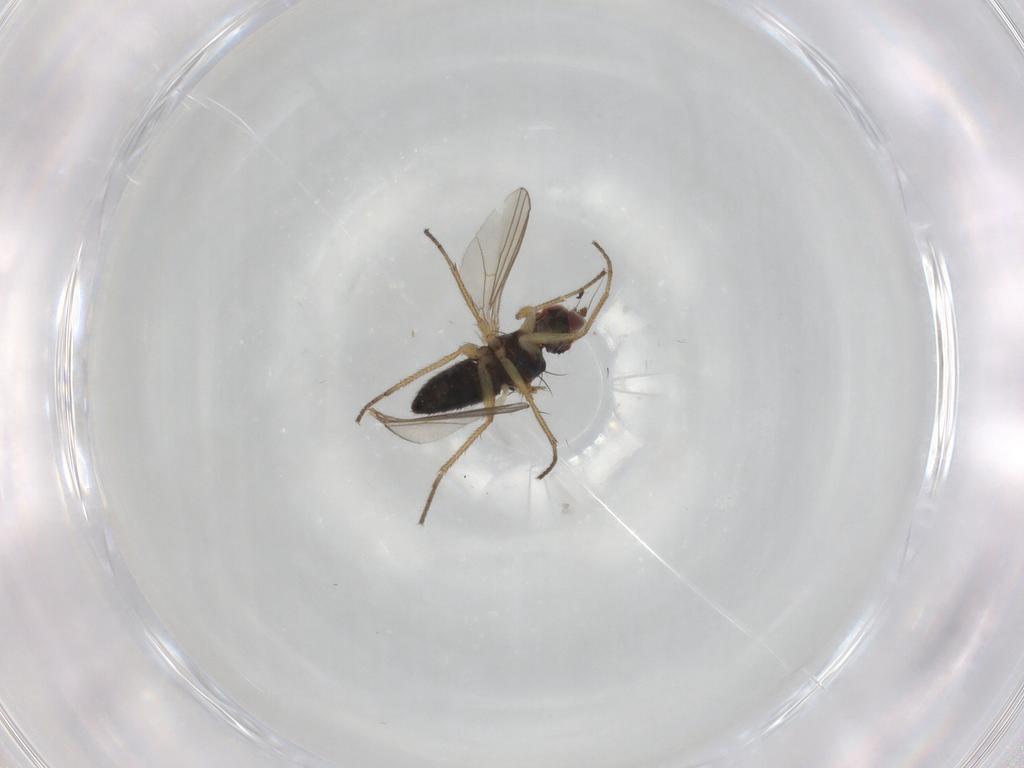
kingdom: Animalia
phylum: Arthropoda
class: Insecta
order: Diptera
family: Dolichopodidae
